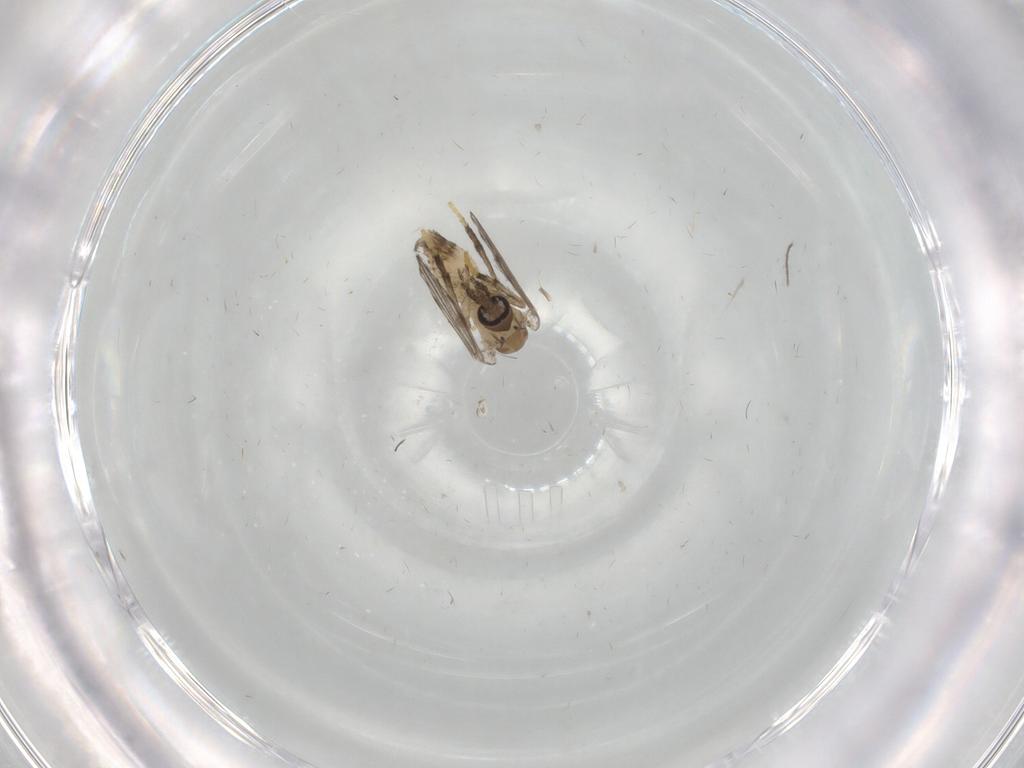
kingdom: Animalia
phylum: Arthropoda
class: Insecta
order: Diptera
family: Psychodidae
